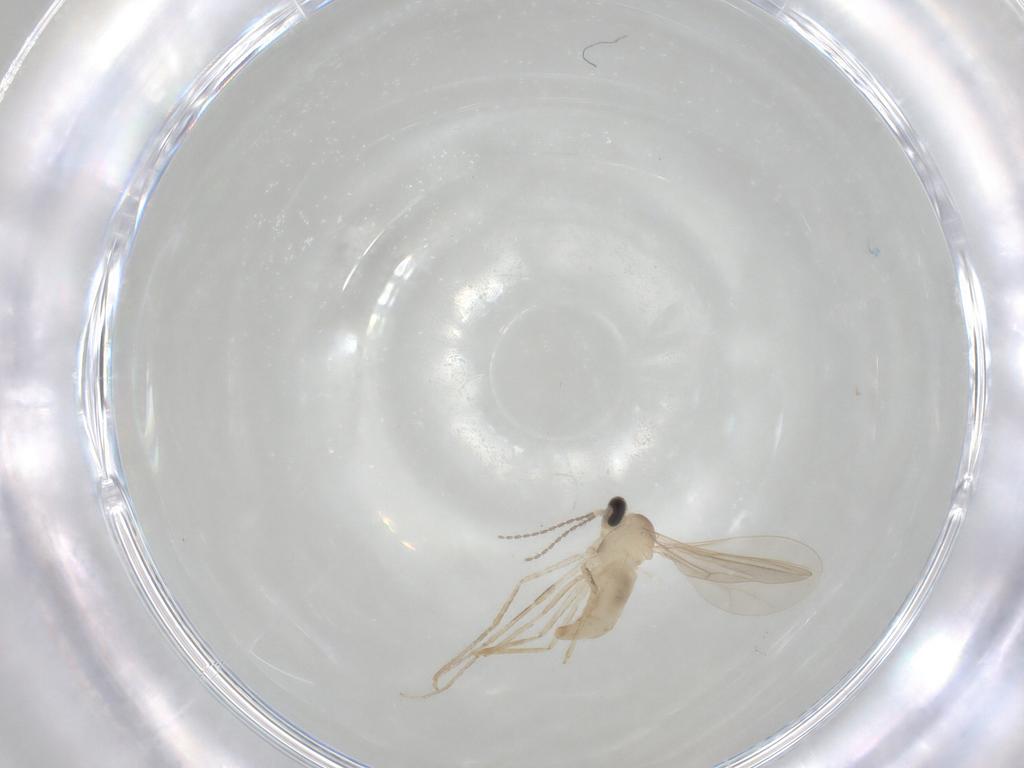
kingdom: Animalia
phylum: Arthropoda
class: Insecta
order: Diptera
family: Cecidomyiidae
